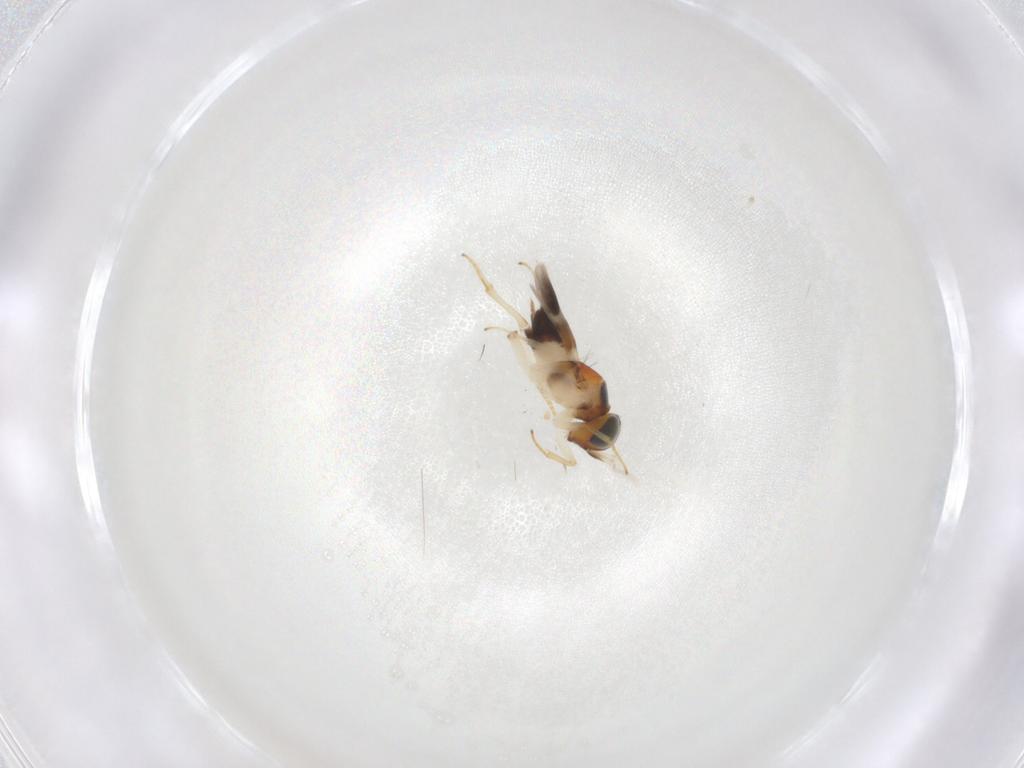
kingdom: Animalia
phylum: Arthropoda
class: Insecta
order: Hymenoptera
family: Encyrtidae
